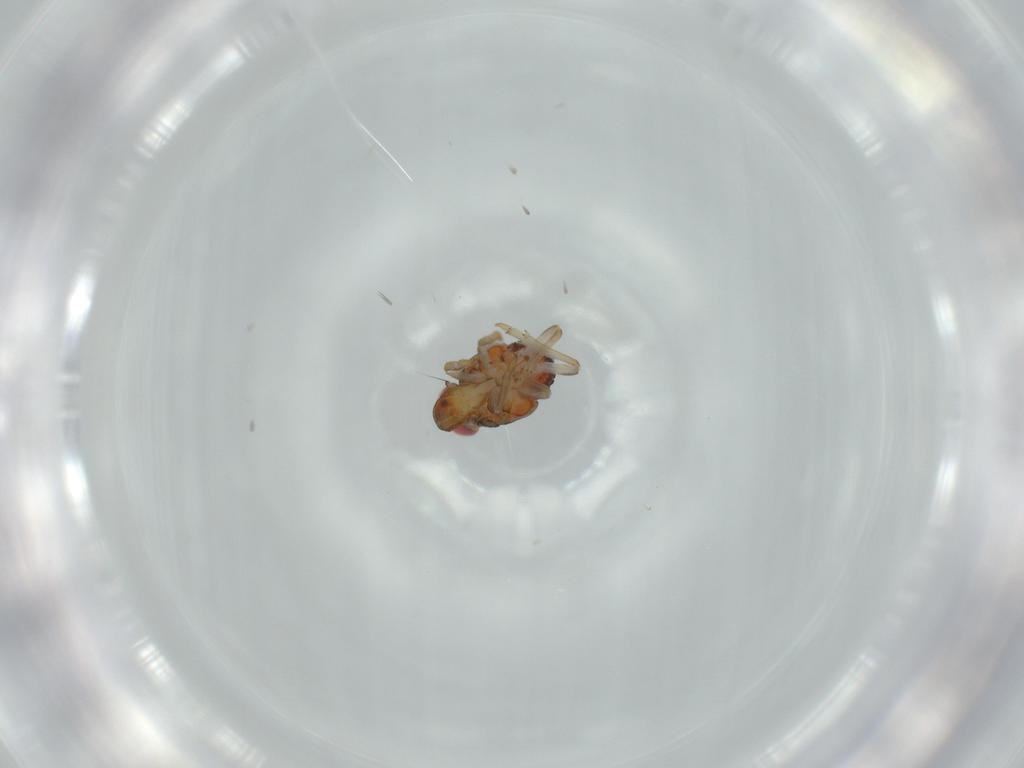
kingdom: Animalia
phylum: Arthropoda
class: Insecta
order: Hemiptera
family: Issidae
